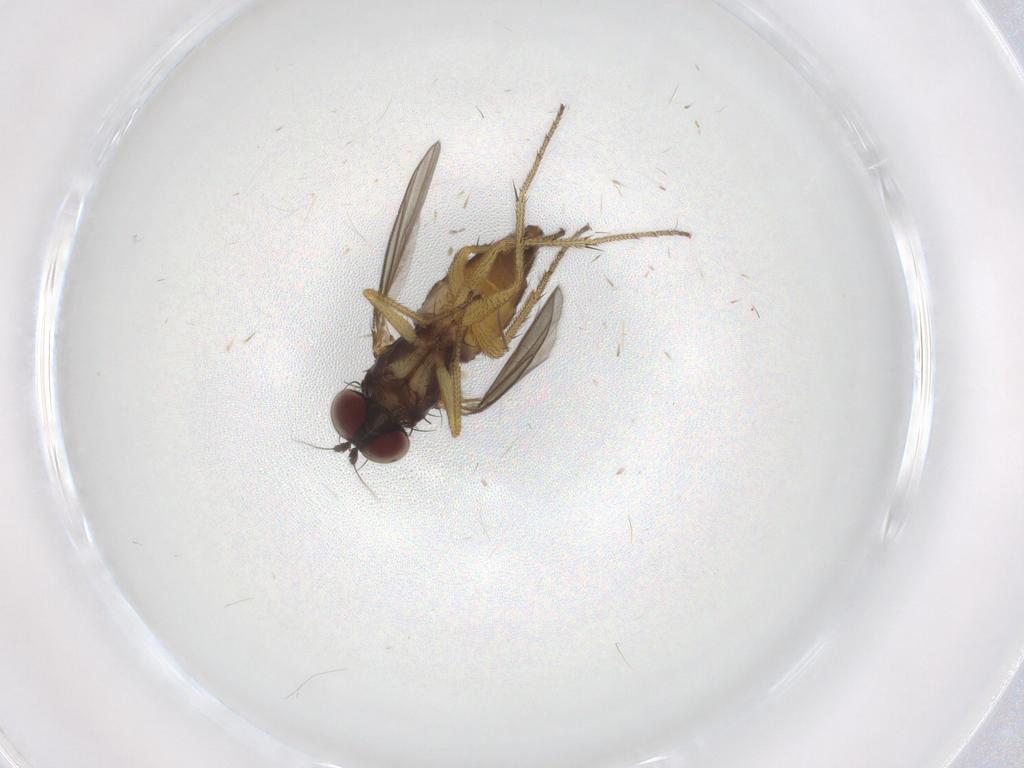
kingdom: Animalia
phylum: Arthropoda
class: Insecta
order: Diptera
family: Dolichopodidae
